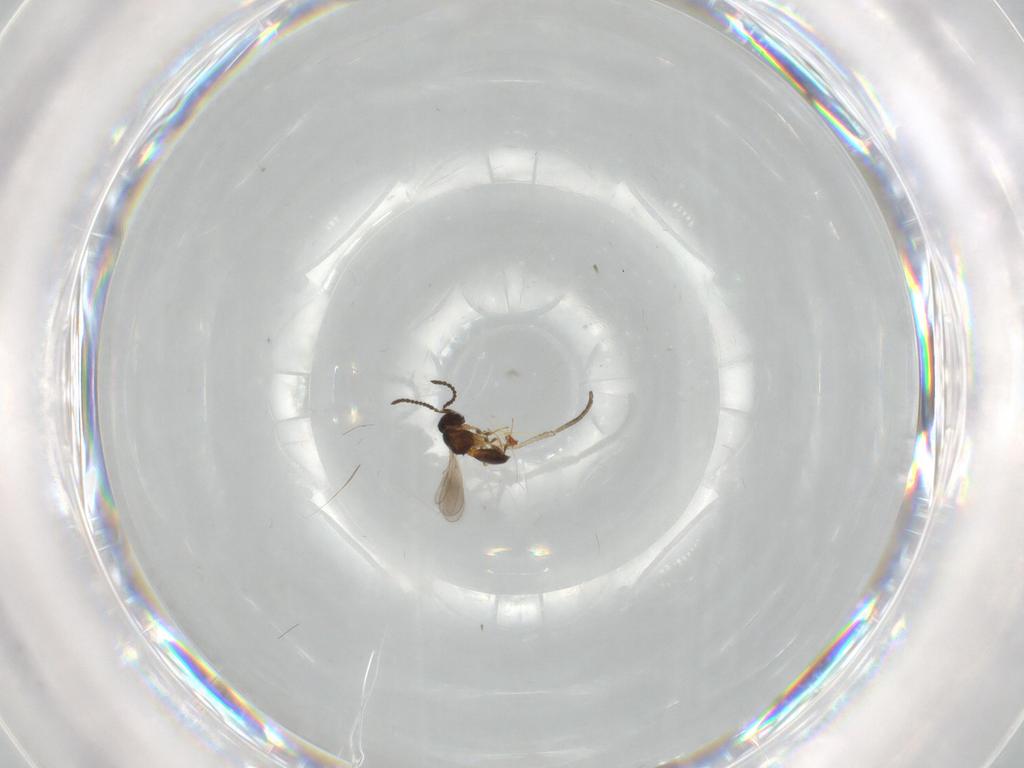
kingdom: Animalia
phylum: Arthropoda
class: Insecta
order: Hymenoptera
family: Scelionidae
